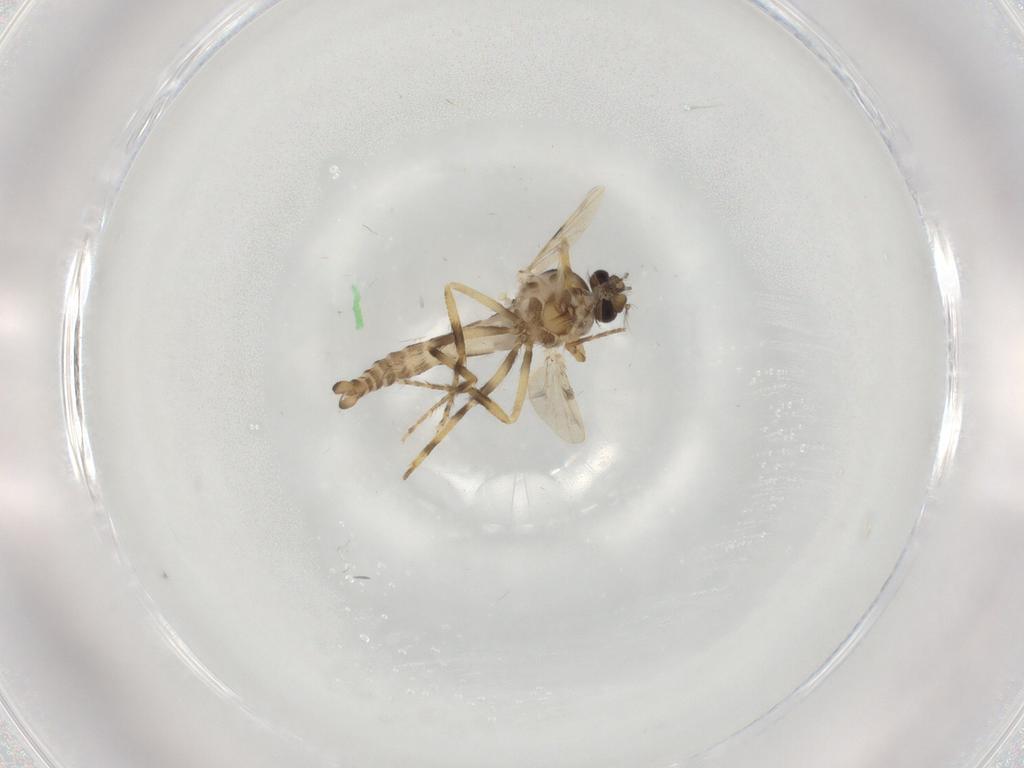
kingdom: Animalia
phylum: Arthropoda
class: Insecta
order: Diptera
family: Ceratopogonidae
